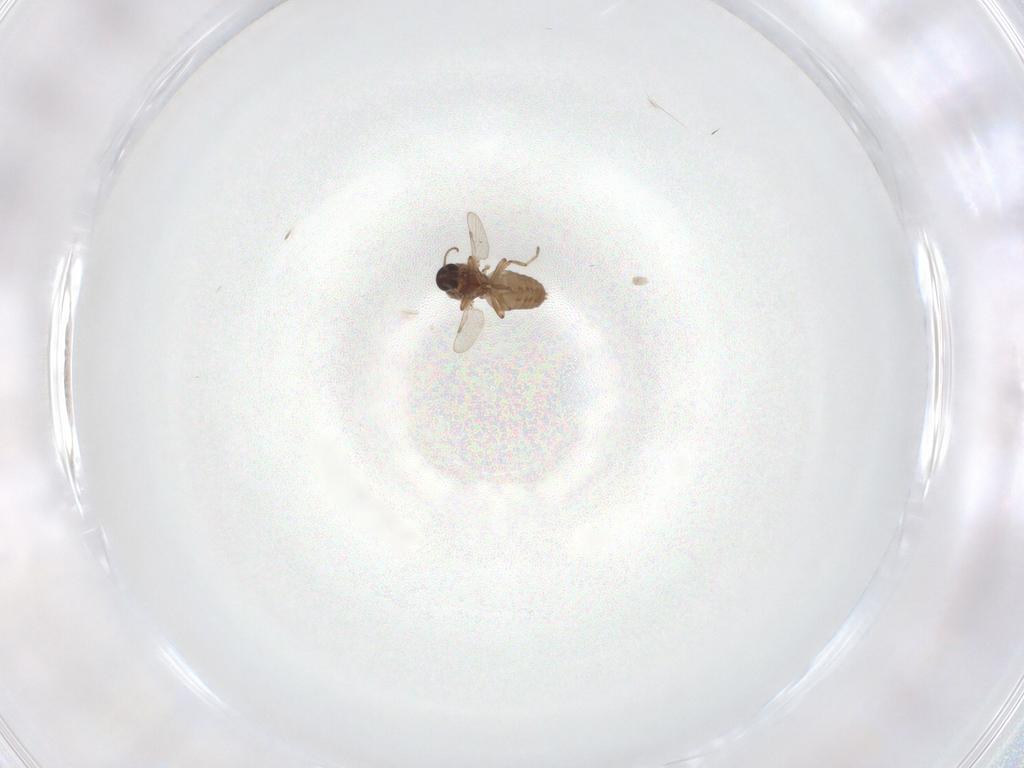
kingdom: Animalia
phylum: Arthropoda
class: Insecta
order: Diptera
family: Ceratopogonidae
